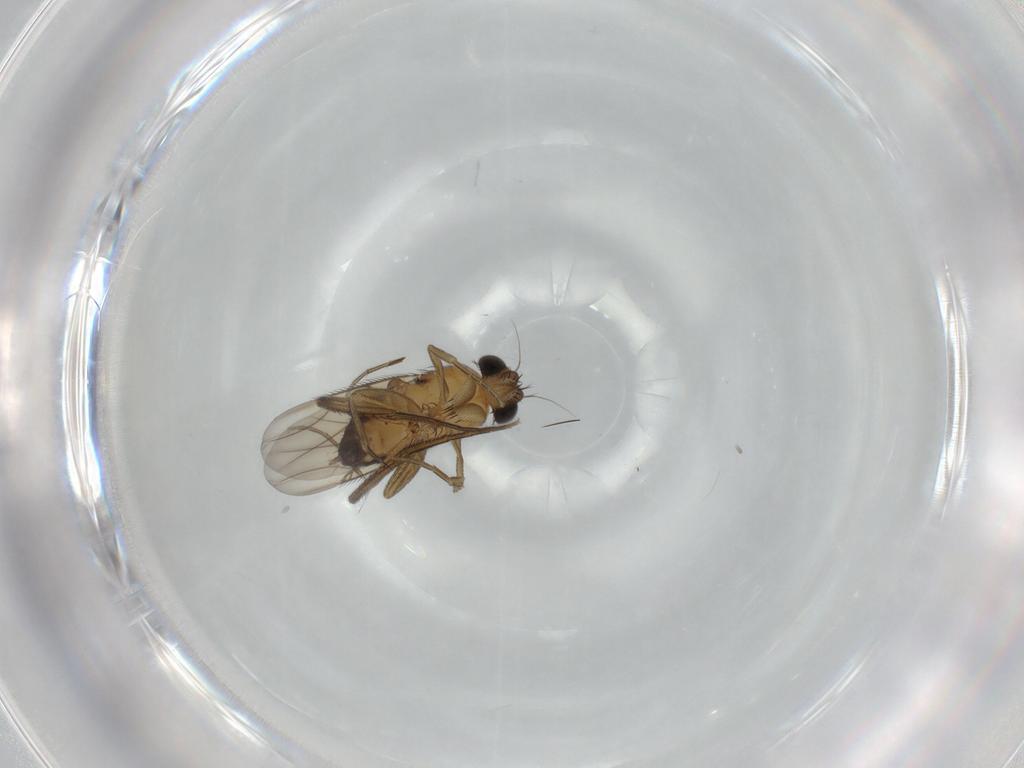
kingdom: Animalia
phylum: Arthropoda
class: Insecta
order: Diptera
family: Phoridae
